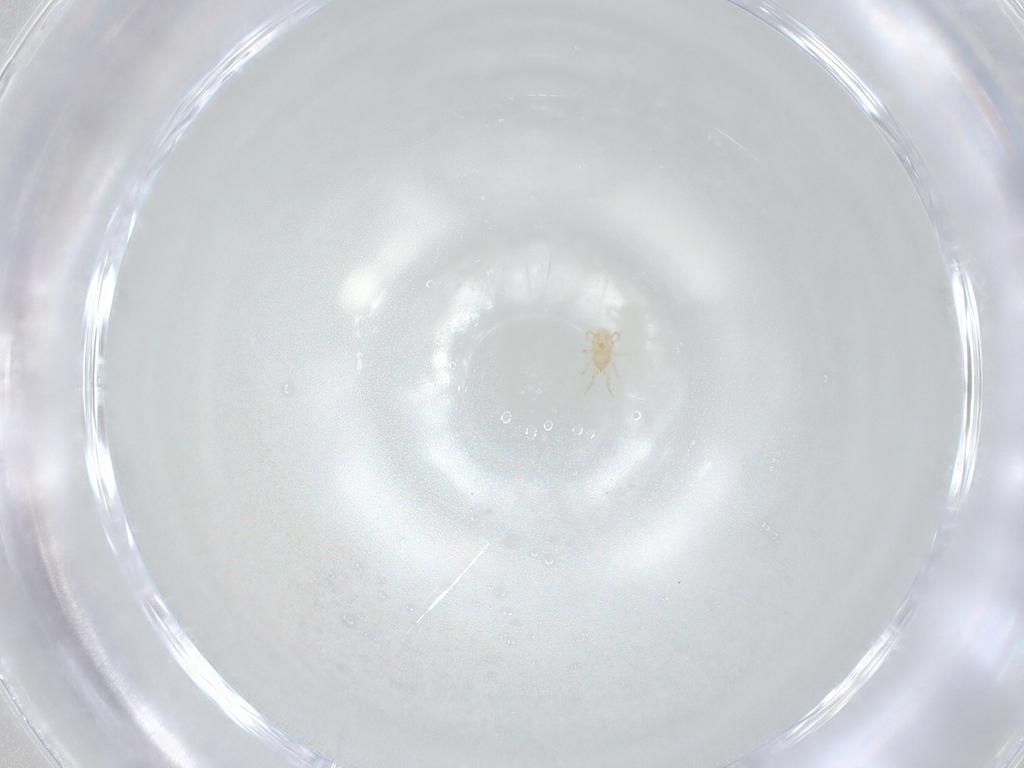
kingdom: Animalia
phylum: Arthropoda
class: Arachnida
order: Mesostigmata
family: Phytoseiidae
